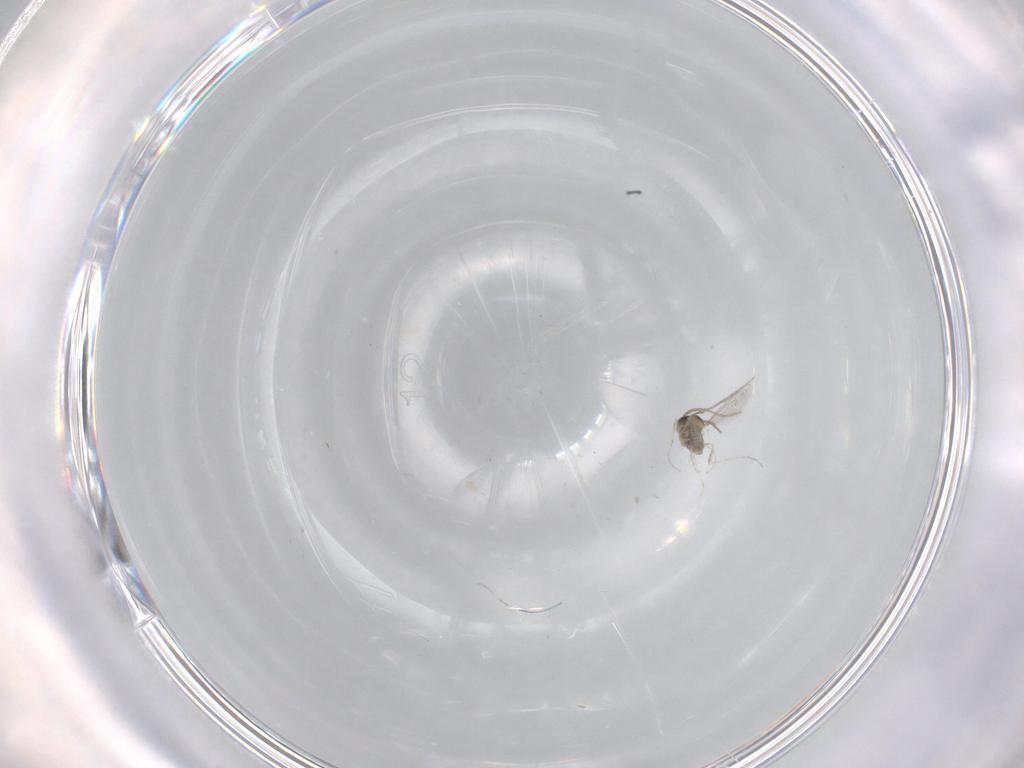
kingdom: Animalia
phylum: Arthropoda
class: Insecta
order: Diptera
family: Cecidomyiidae
